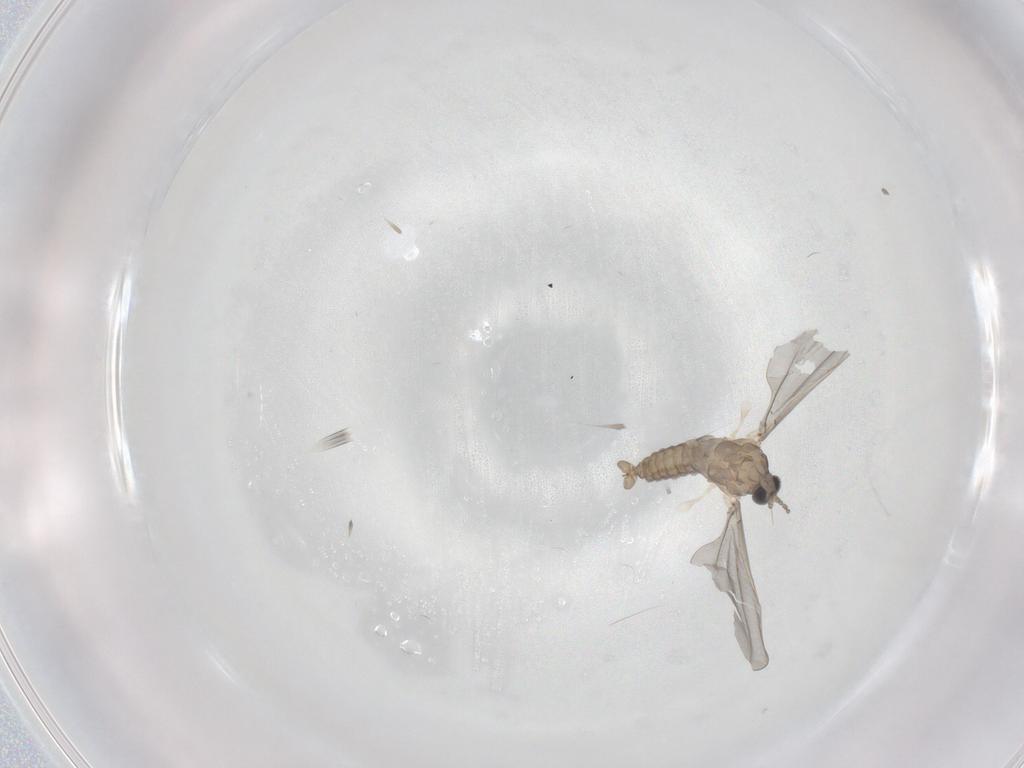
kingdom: Animalia
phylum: Arthropoda
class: Insecta
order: Diptera
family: Cecidomyiidae
